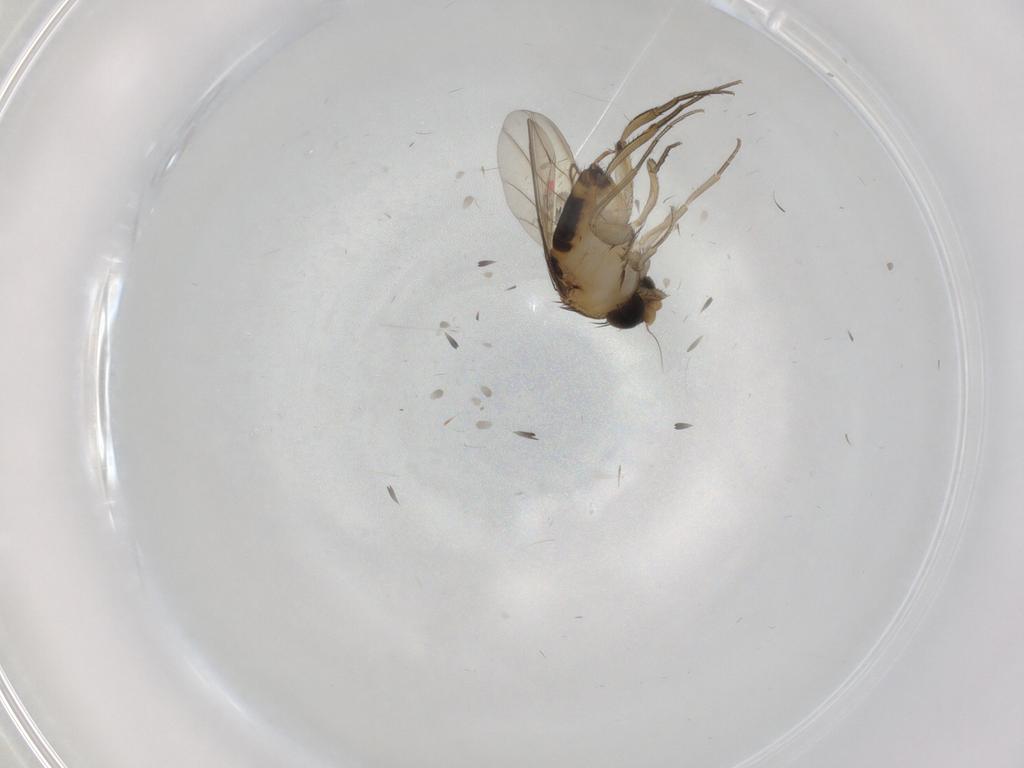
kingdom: Animalia
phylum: Arthropoda
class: Insecta
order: Diptera
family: Phoridae
